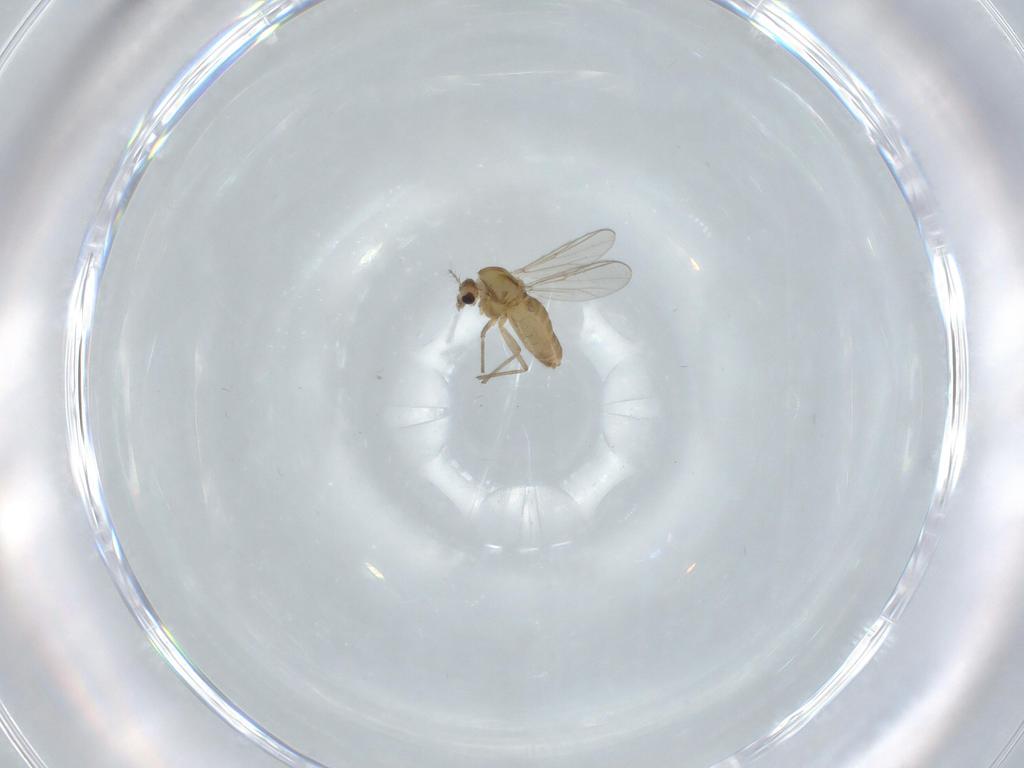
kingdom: Animalia
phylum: Arthropoda
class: Insecta
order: Diptera
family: Chironomidae
